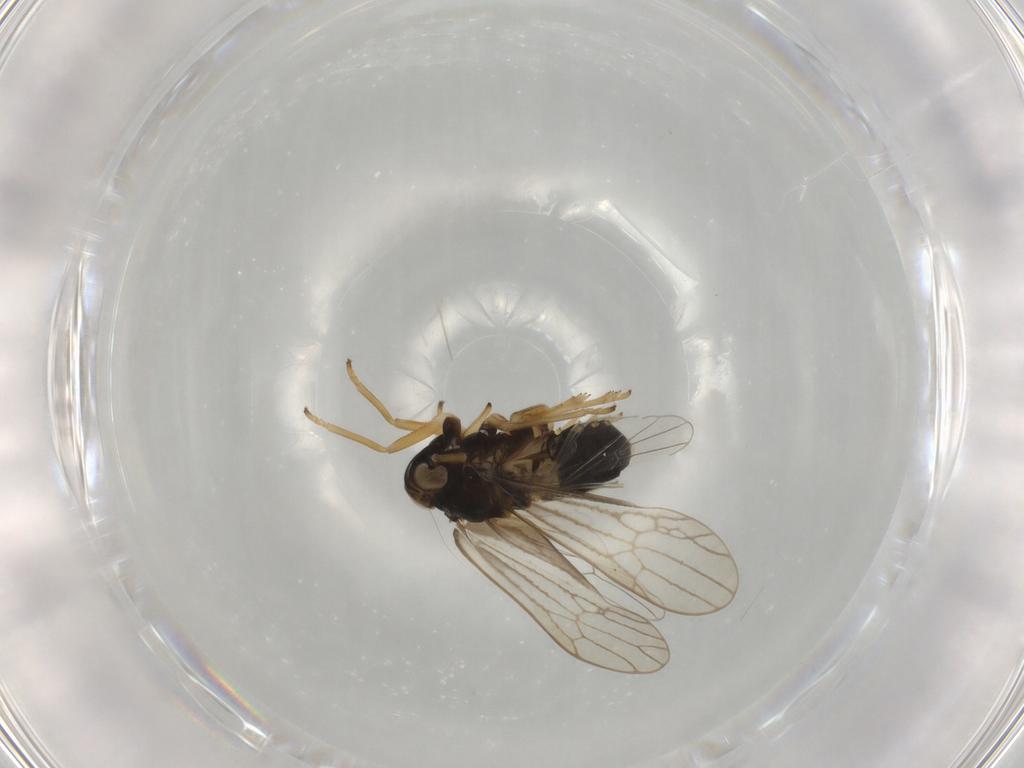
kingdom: Animalia
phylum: Arthropoda
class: Insecta
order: Hemiptera
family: Delphacidae
